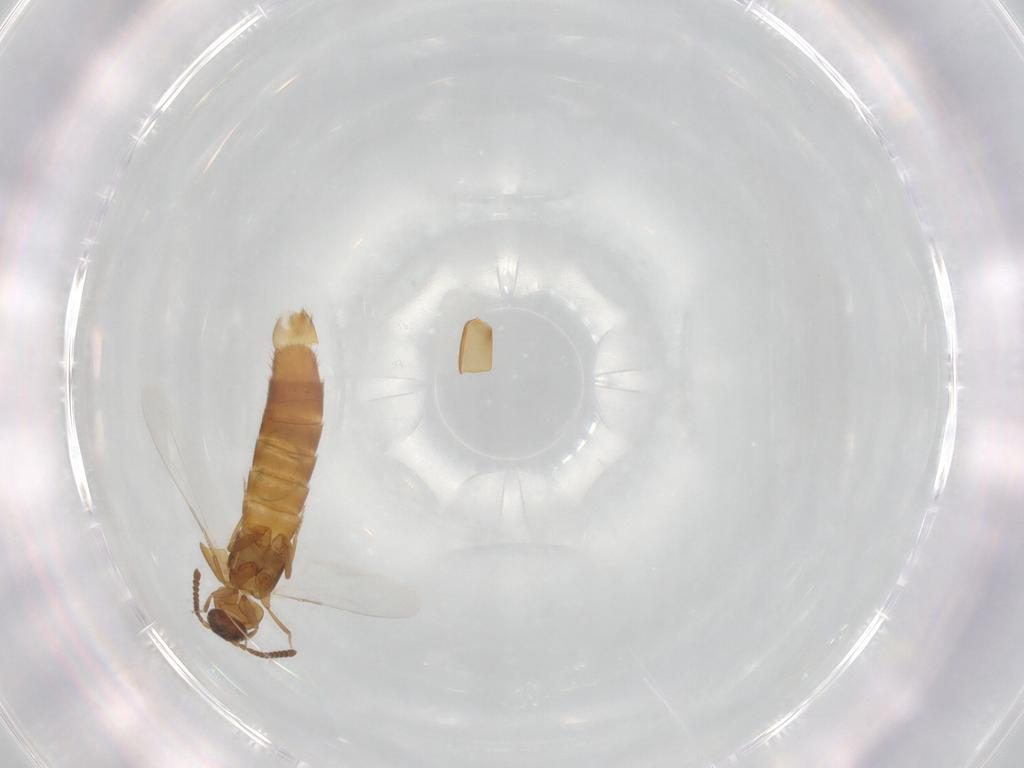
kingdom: Animalia
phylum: Arthropoda
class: Insecta
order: Coleoptera
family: Staphylinidae
